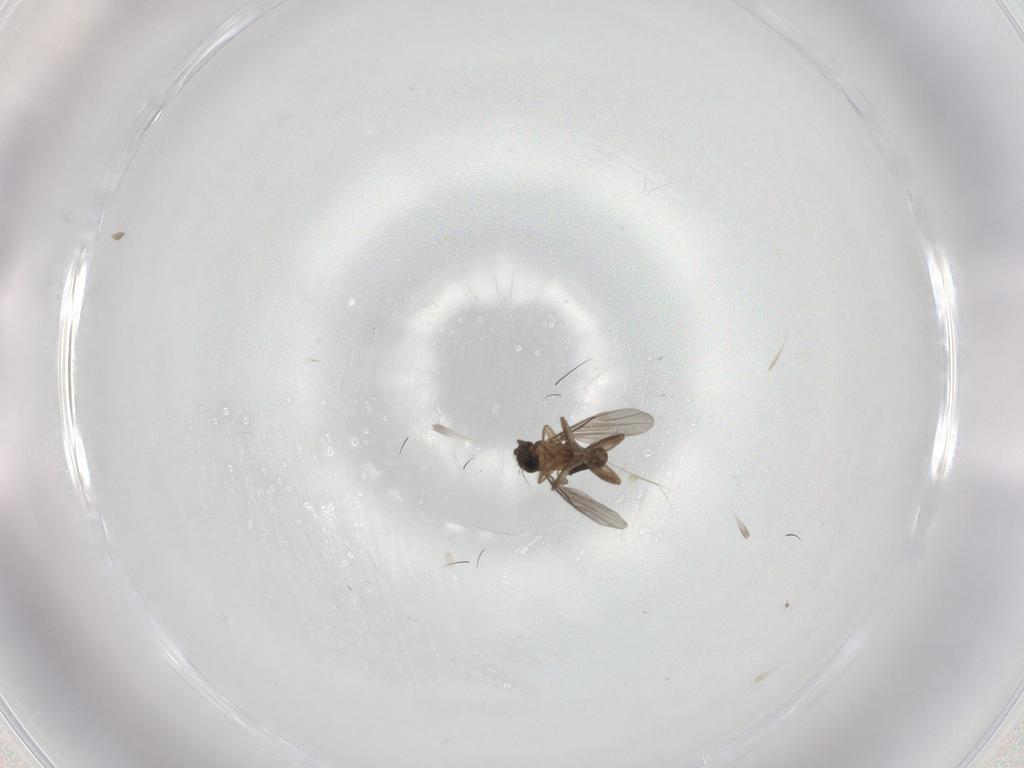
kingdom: Animalia
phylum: Arthropoda
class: Insecta
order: Diptera
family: Psychodidae
